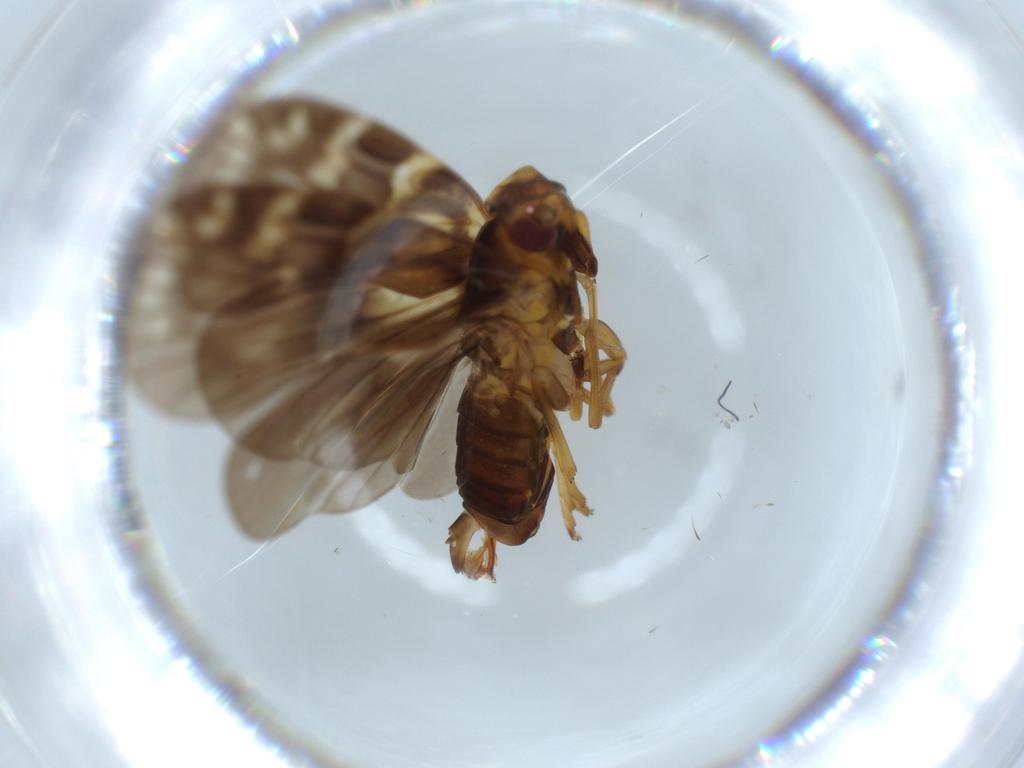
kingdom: Animalia
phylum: Arthropoda
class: Insecta
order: Hemiptera
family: Cixiidae
